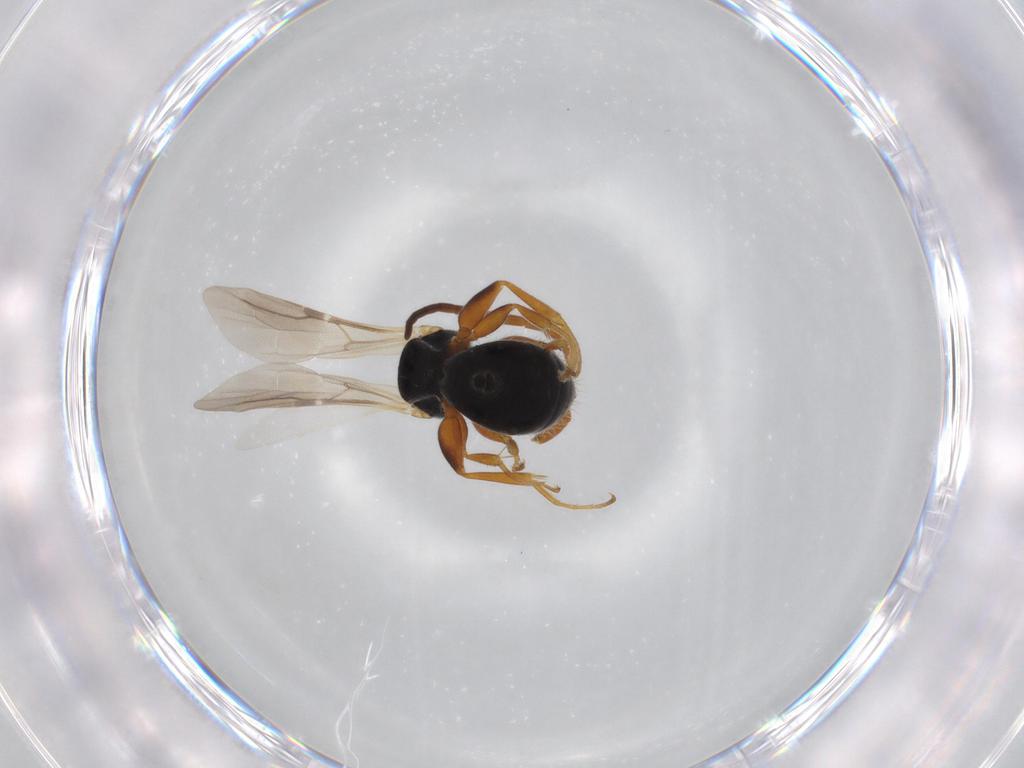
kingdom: Animalia
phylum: Arthropoda
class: Insecta
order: Hymenoptera
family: Bethylidae
